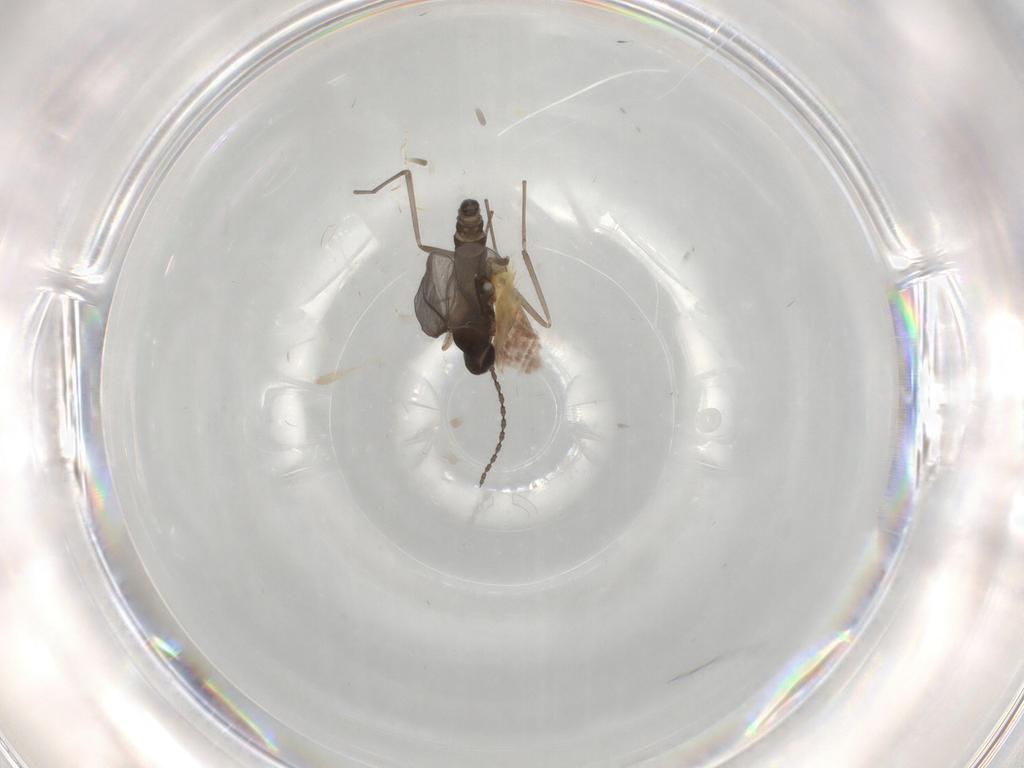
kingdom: Animalia
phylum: Arthropoda
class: Insecta
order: Diptera
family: Cecidomyiidae
